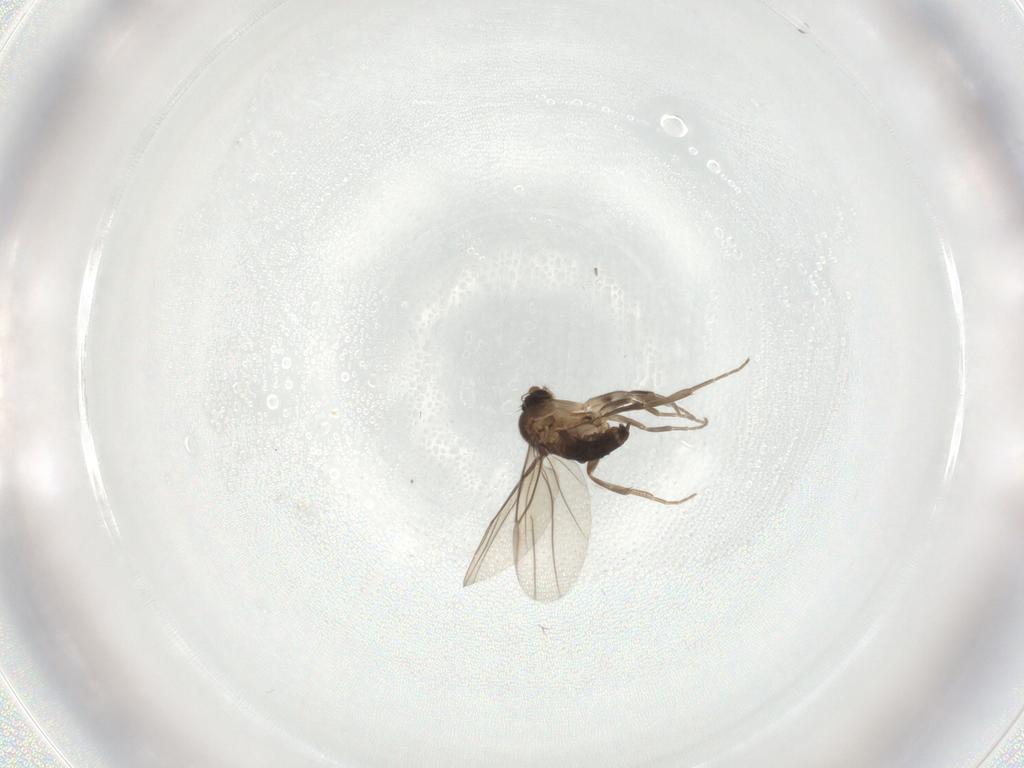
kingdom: Animalia
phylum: Arthropoda
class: Insecta
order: Diptera
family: Phoridae
